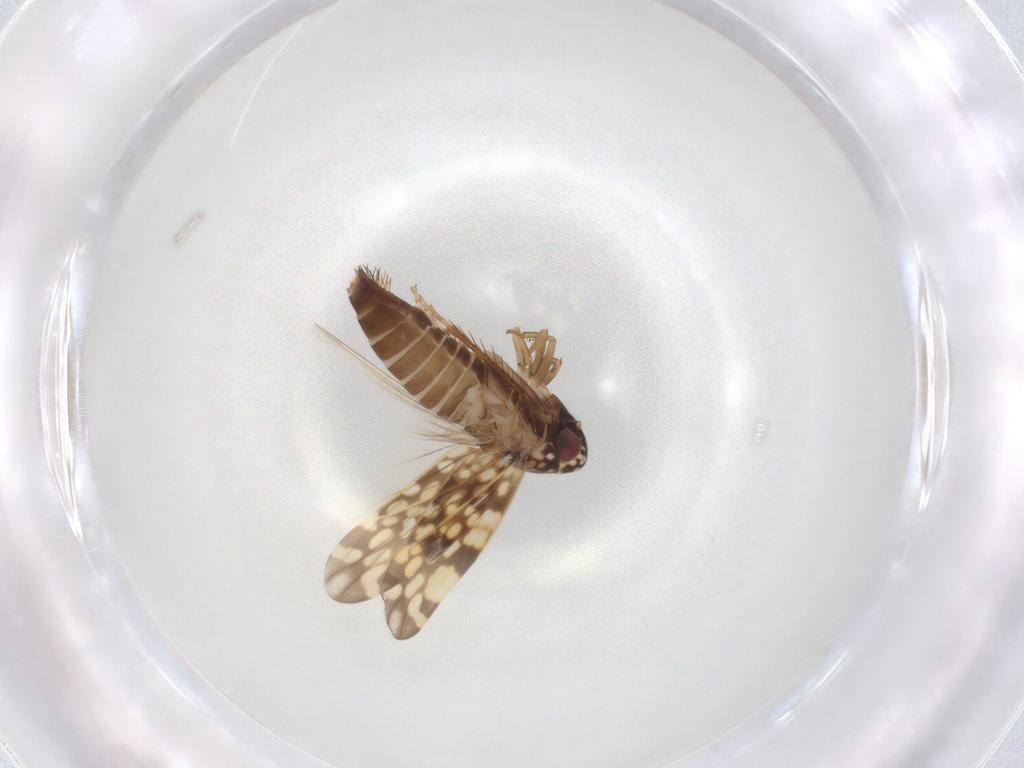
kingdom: Animalia
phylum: Arthropoda
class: Insecta
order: Hemiptera
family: Cicadellidae
